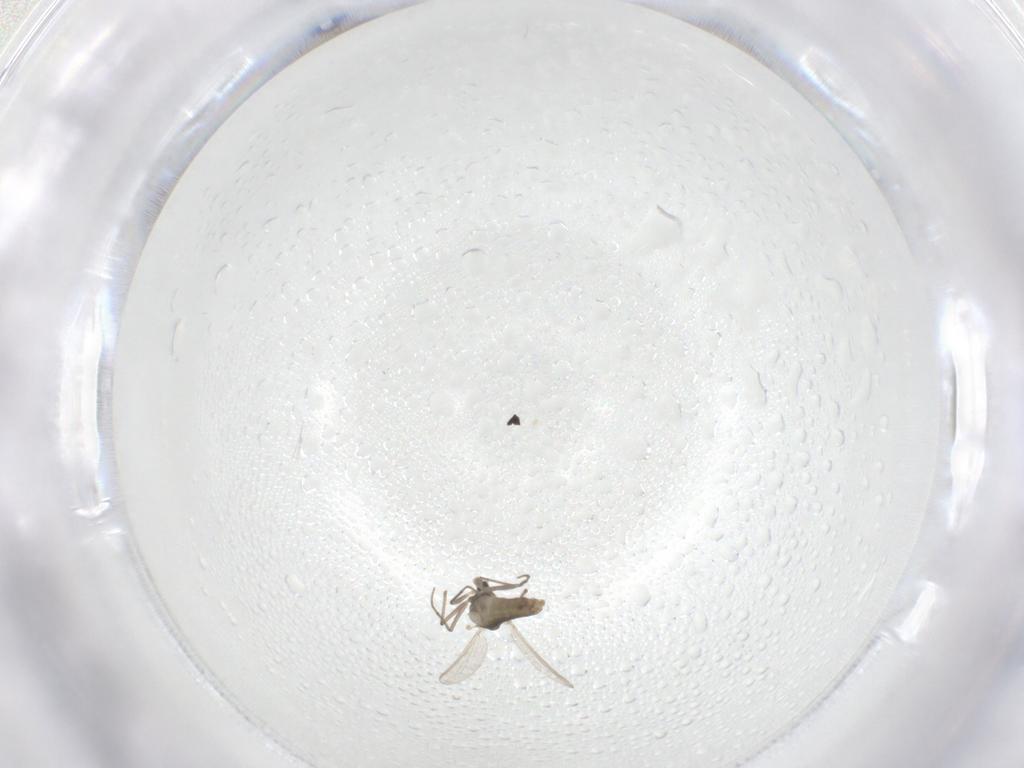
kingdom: Animalia
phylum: Arthropoda
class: Insecta
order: Diptera
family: Chironomidae
